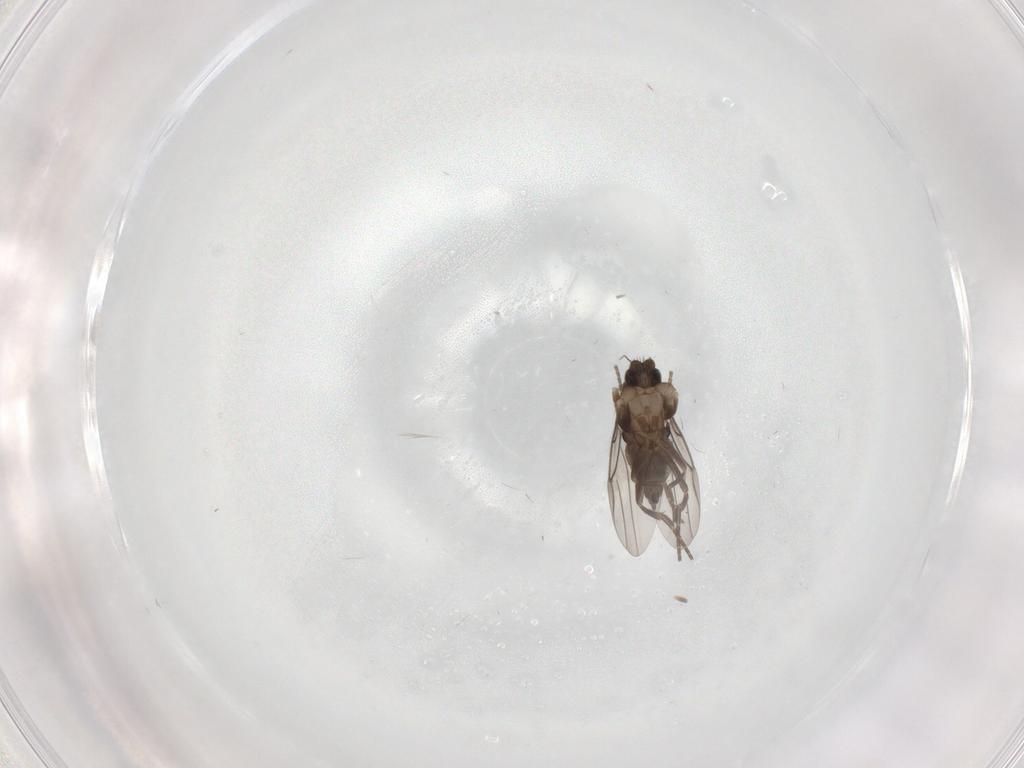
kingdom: Animalia
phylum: Arthropoda
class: Insecta
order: Diptera
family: Phoridae
